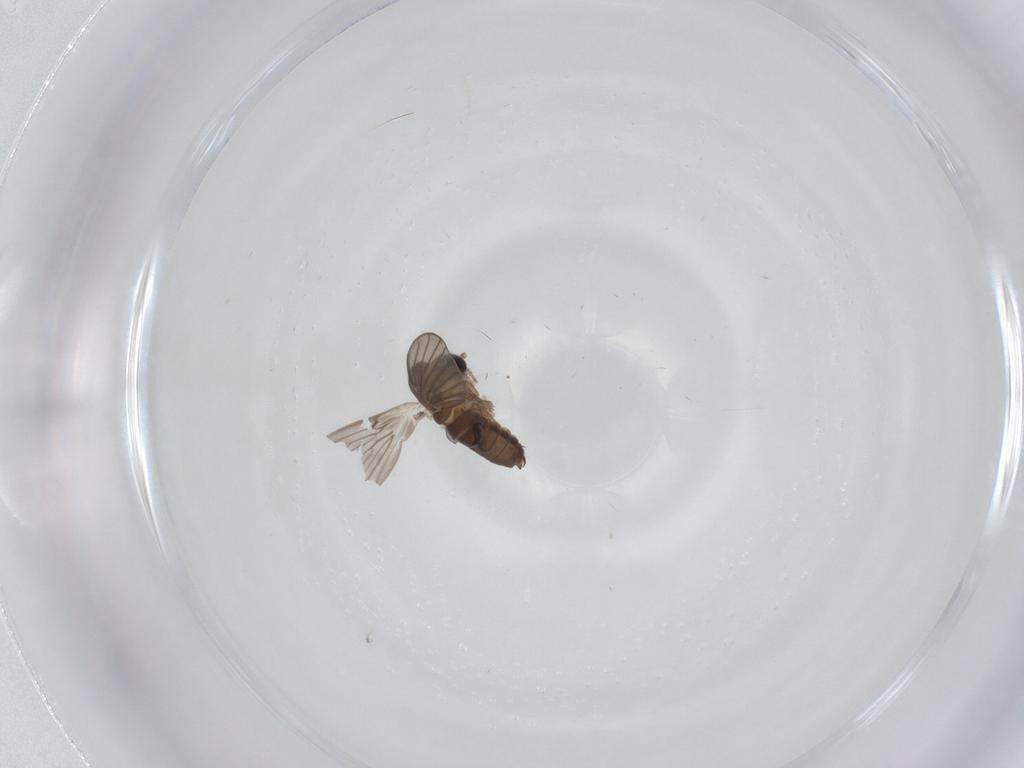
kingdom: Animalia
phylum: Arthropoda
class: Insecta
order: Diptera
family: Psychodidae
